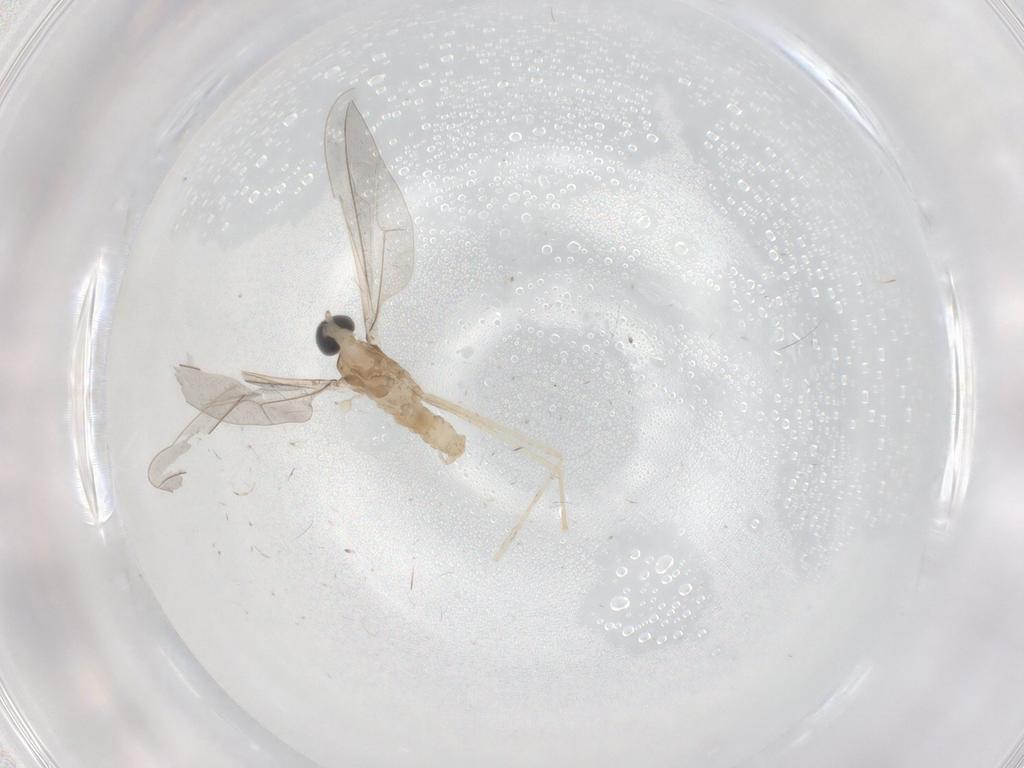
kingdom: Animalia
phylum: Arthropoda
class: Insecta
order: Diptera
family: Cecidomyiidae
